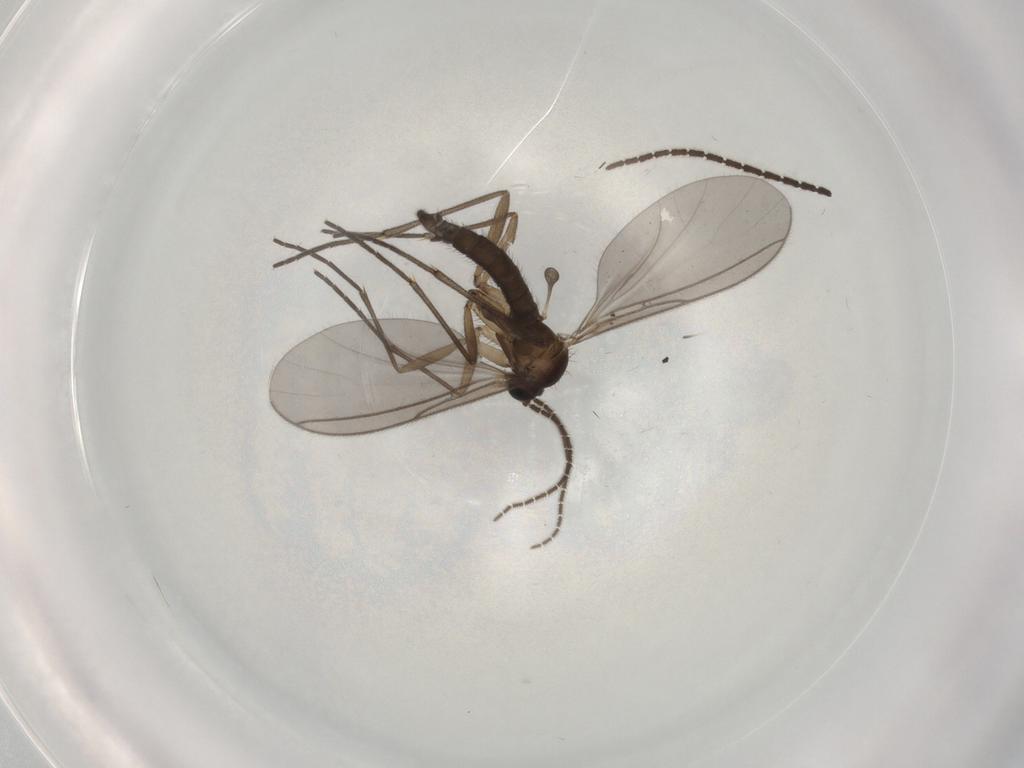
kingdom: Animalia
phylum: Arthropoda
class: Insecta
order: Diptera
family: Sciaridae
